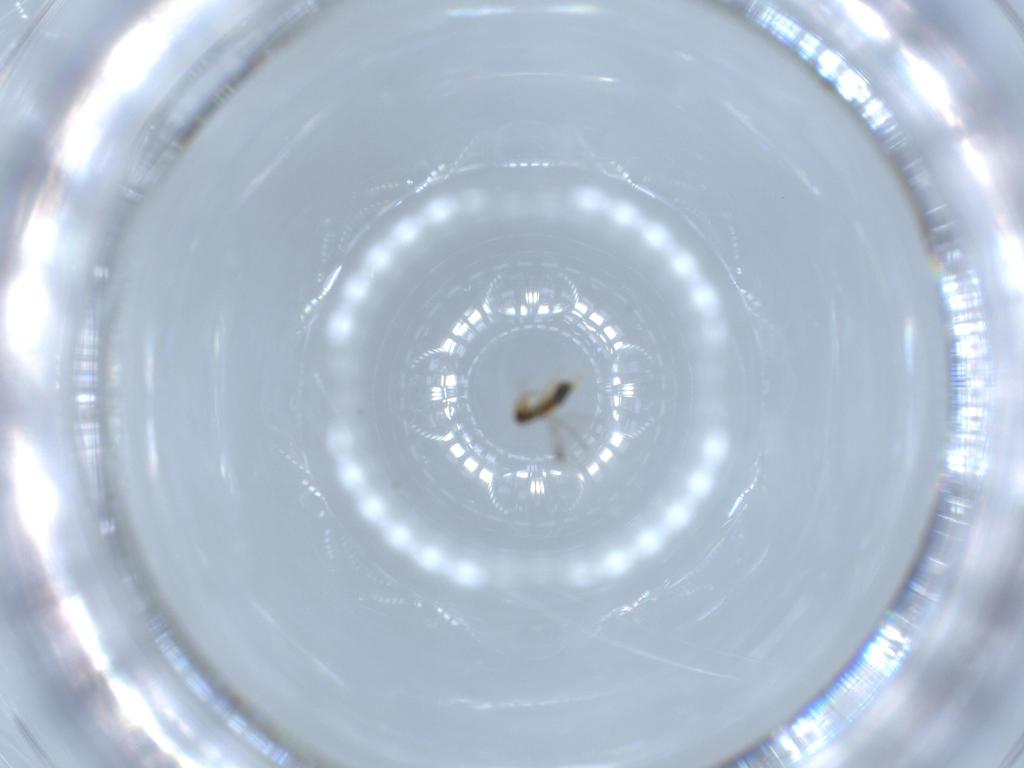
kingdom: Animalia
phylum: Arthropoda
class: Insecta
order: Hymenoptera
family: Aphelinidae
